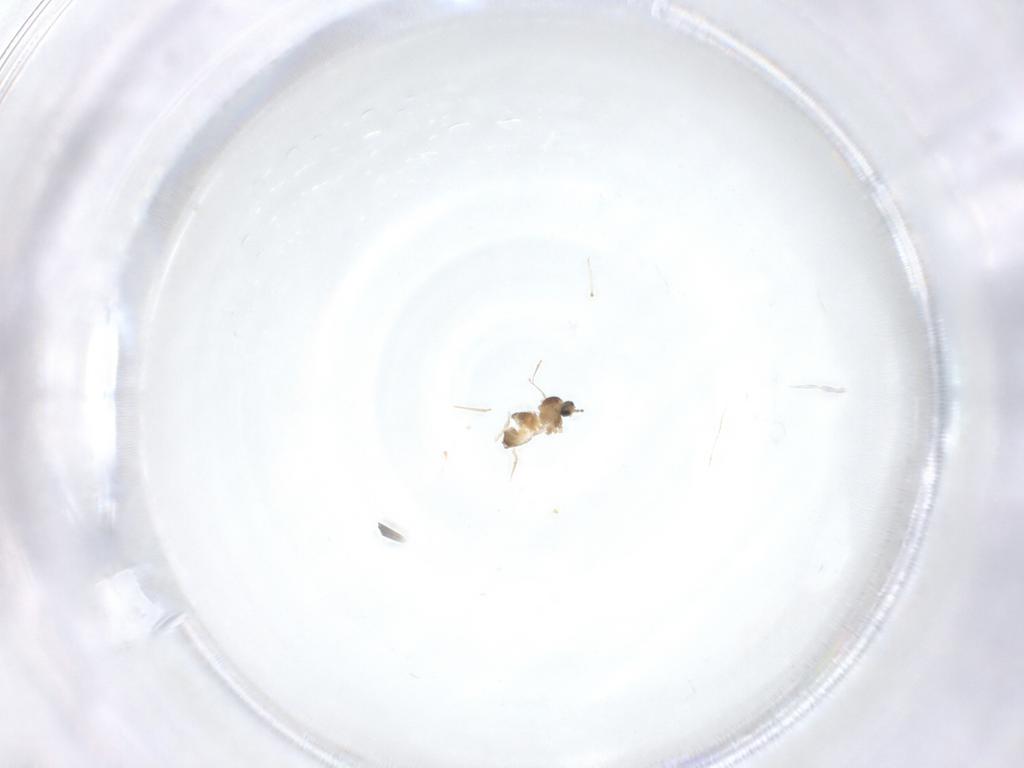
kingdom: Animalia
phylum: Arthropoda
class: Insecta
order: Diptera
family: Cecidomyiidae
